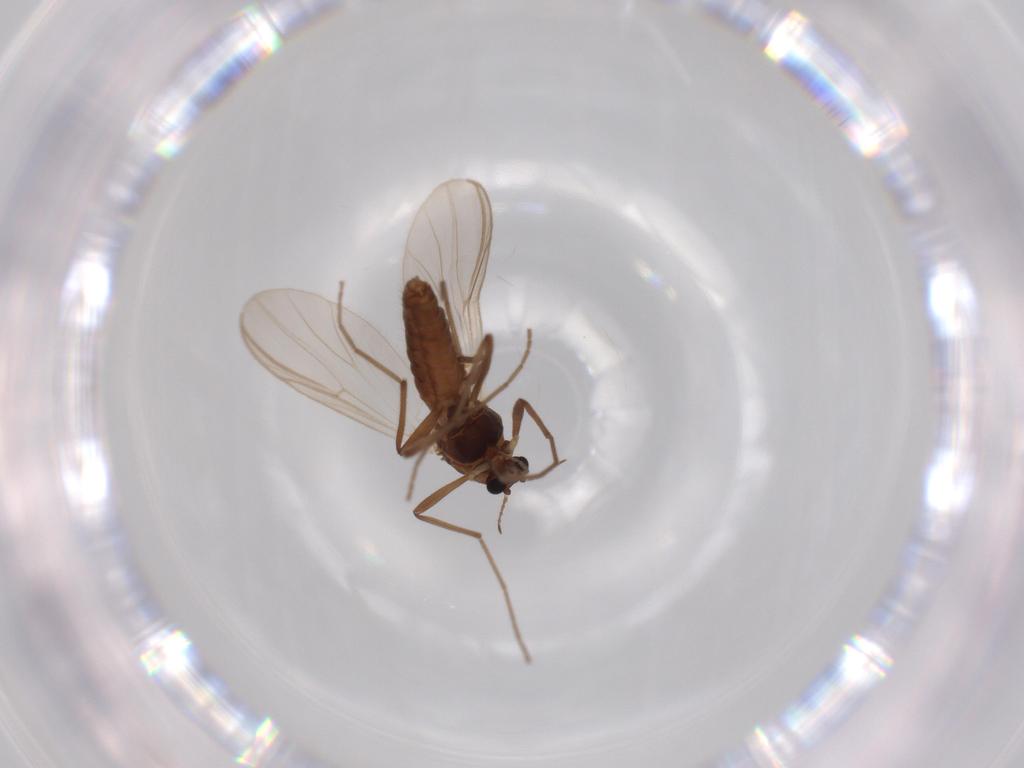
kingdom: Animalia
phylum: Arthropoda
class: Insecta
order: Diptera
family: Chironomidae
